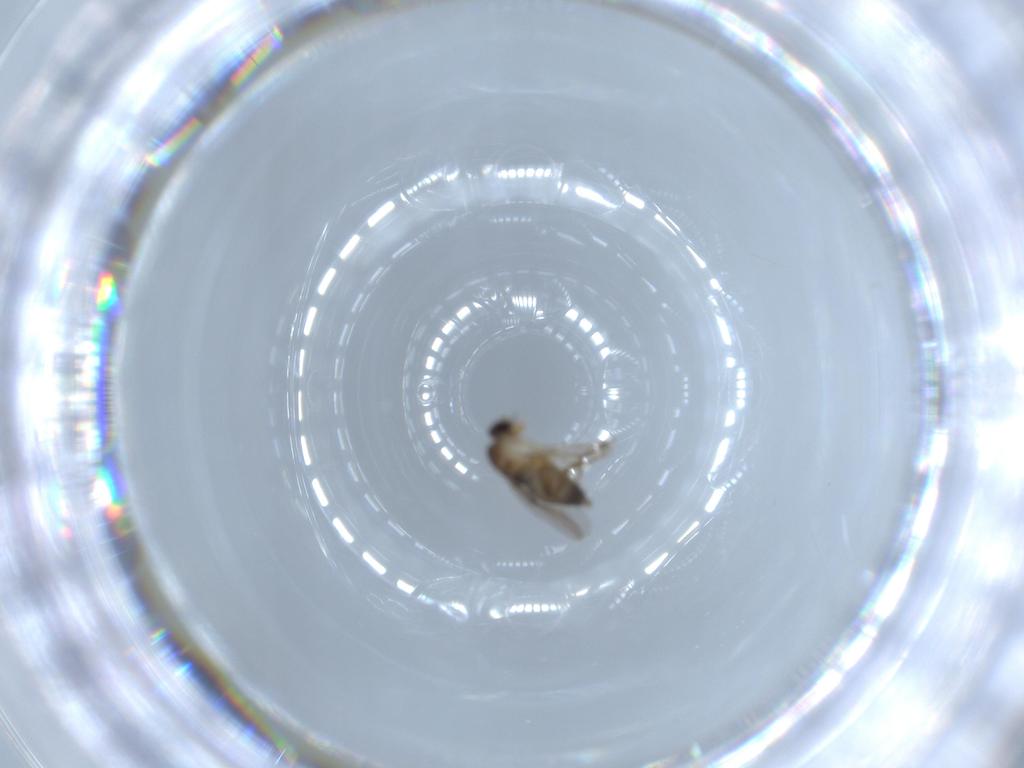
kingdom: Animalia
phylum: Arthropoda
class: Insecta
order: Diptera
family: Phoridae
